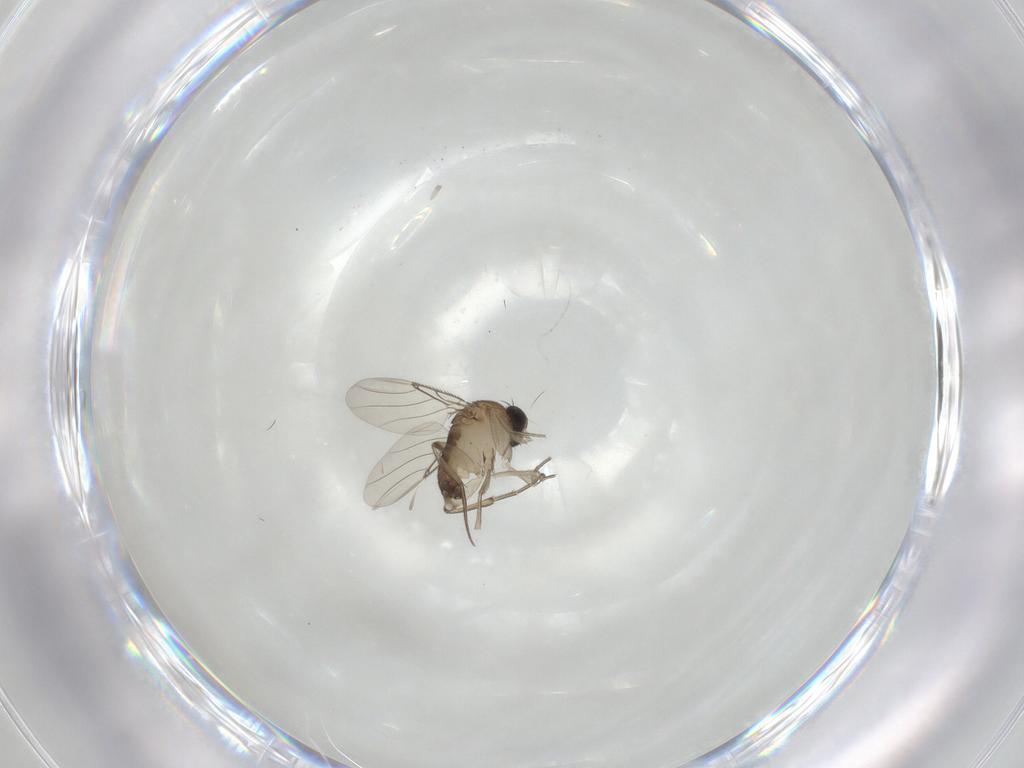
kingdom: Animalia
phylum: Arthropoda
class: Insecta
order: Diptera
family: Phoridae
